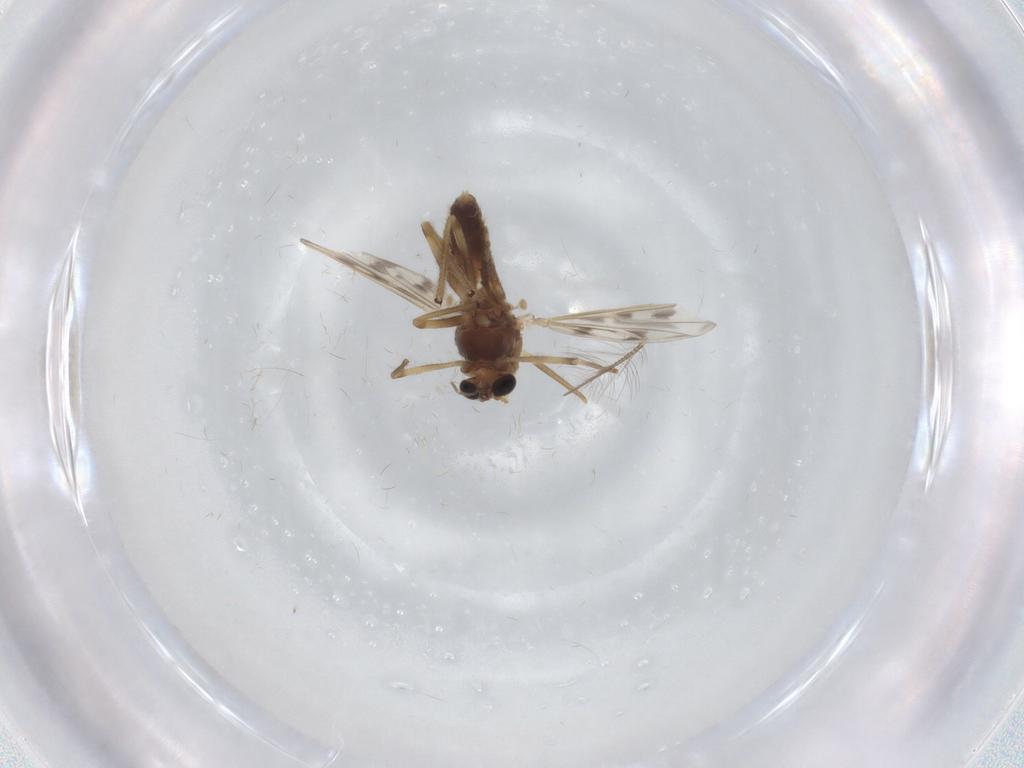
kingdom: Animalia
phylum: Arthropoda
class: Insecta
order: Diptera
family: Chironomidae
